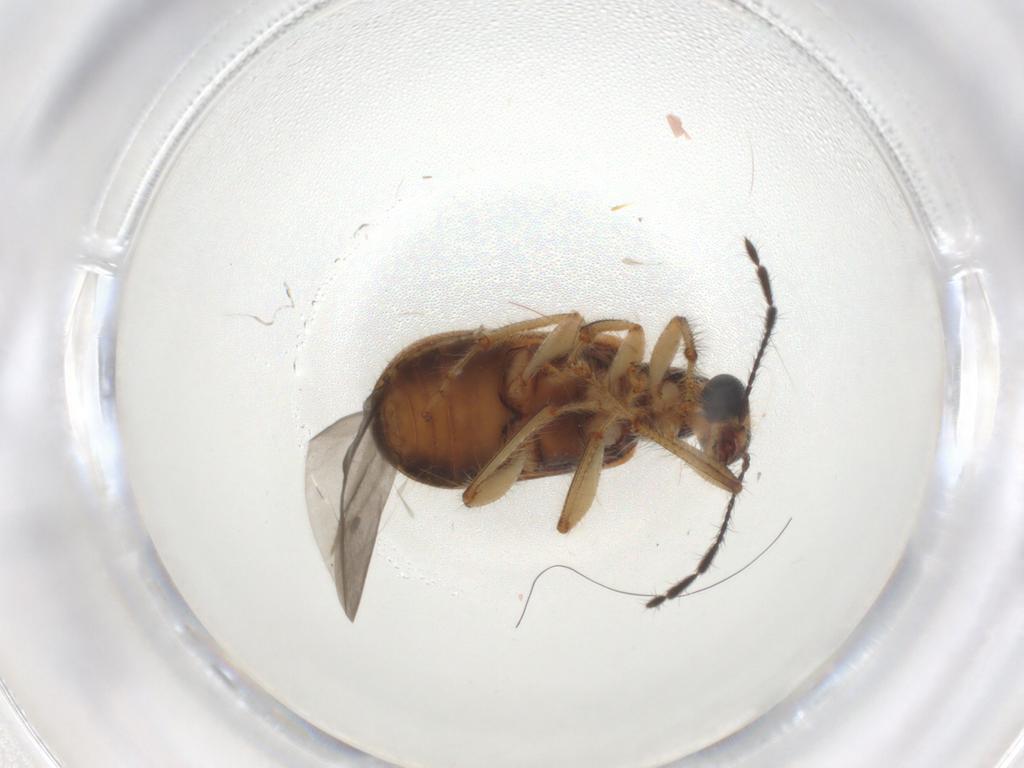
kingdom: Animalia
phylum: Arthropoda
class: Insecta
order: Coleoptera
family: Attelabidae
